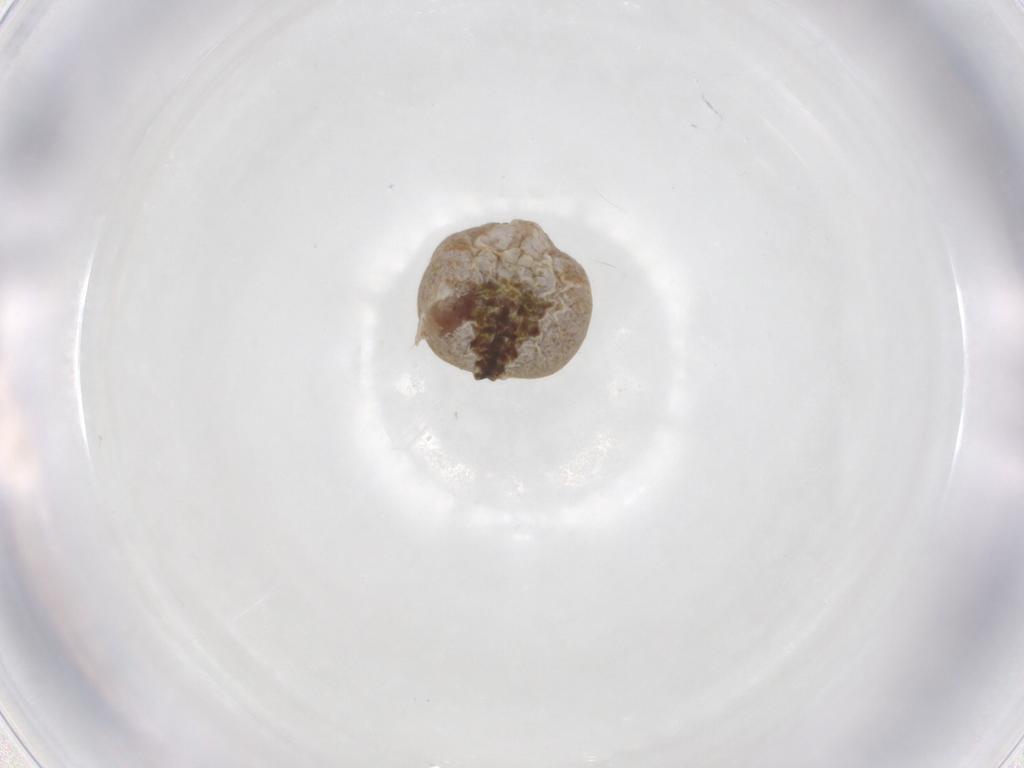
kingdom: Animalia
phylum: Arthropoda
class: Arachnida
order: Araneae
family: Araneidae
